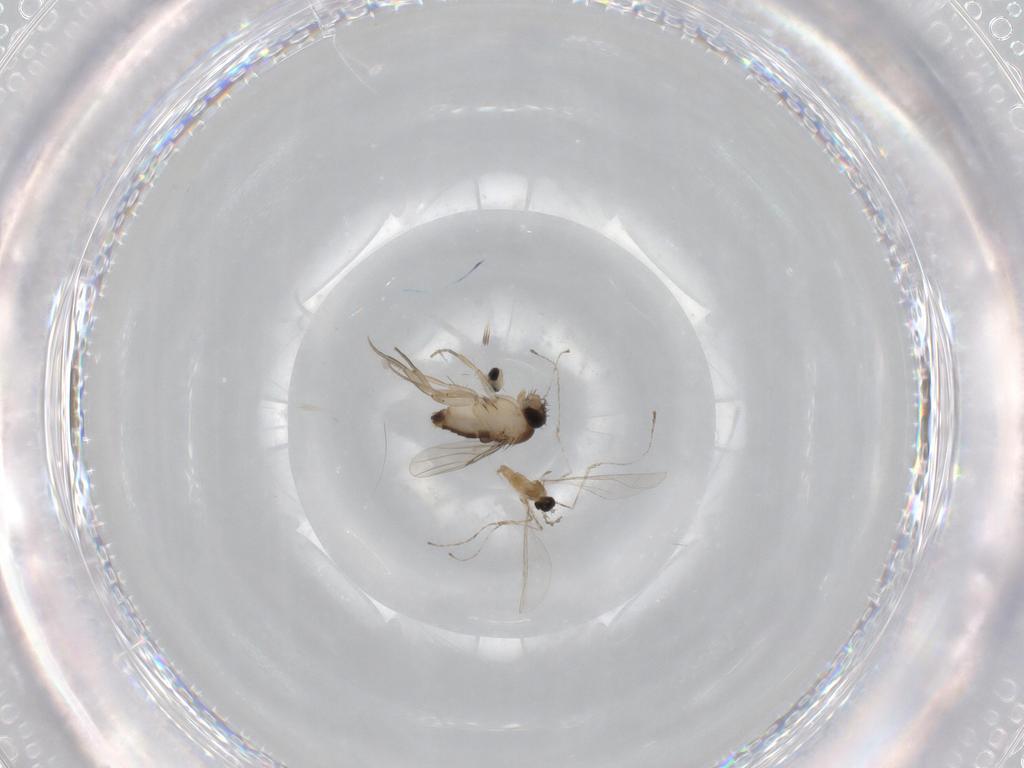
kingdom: Animalia
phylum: Arthropoda
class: Insecta
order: Diptera
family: Cecidomyiidae
